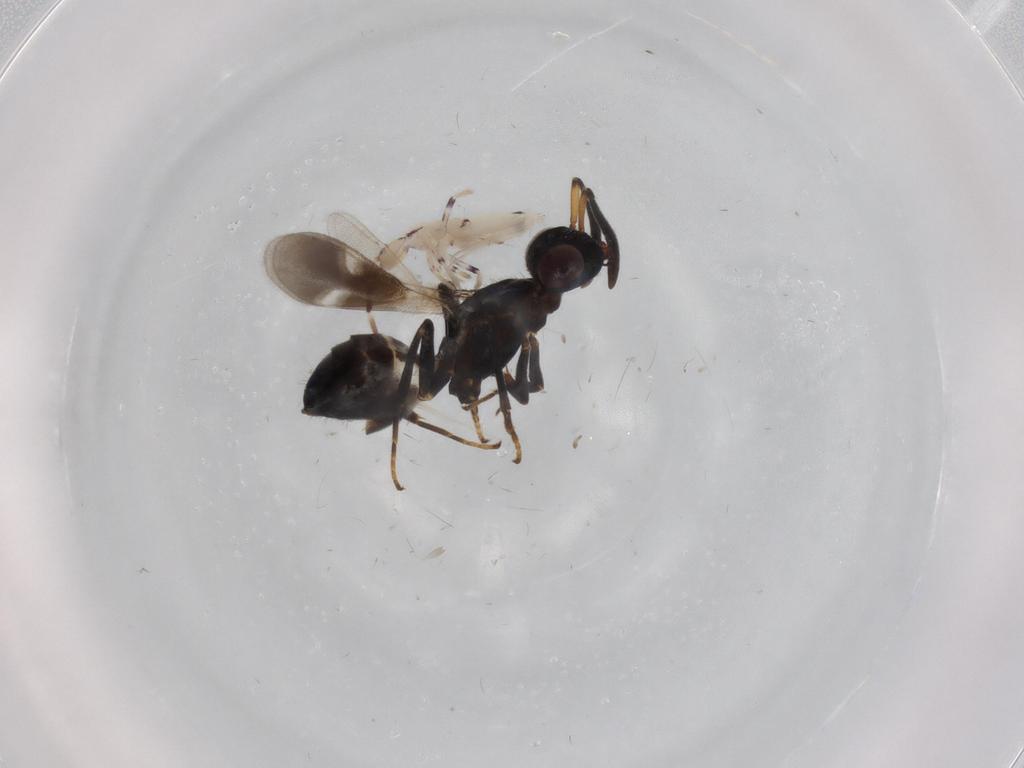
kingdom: Animalia
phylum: Arthropoda
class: Collembola
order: Entomobryomorpha
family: Entomobryidae
